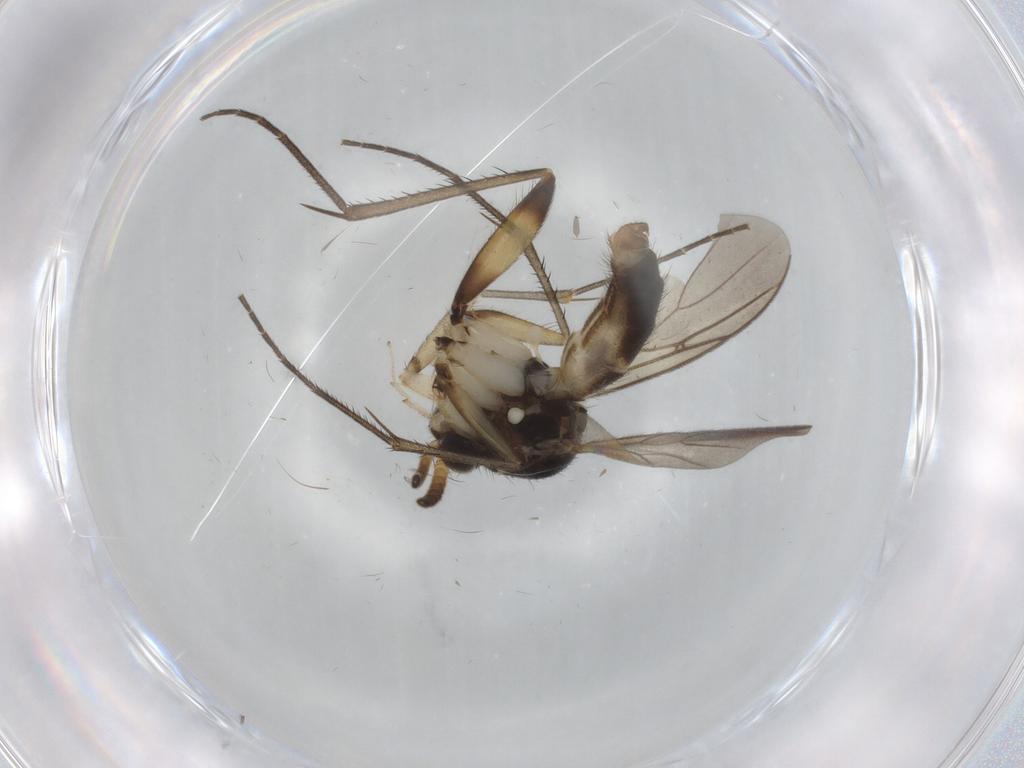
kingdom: Animalia
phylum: Arthropoda
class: Insecta
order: Diptera
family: Limoniidae
